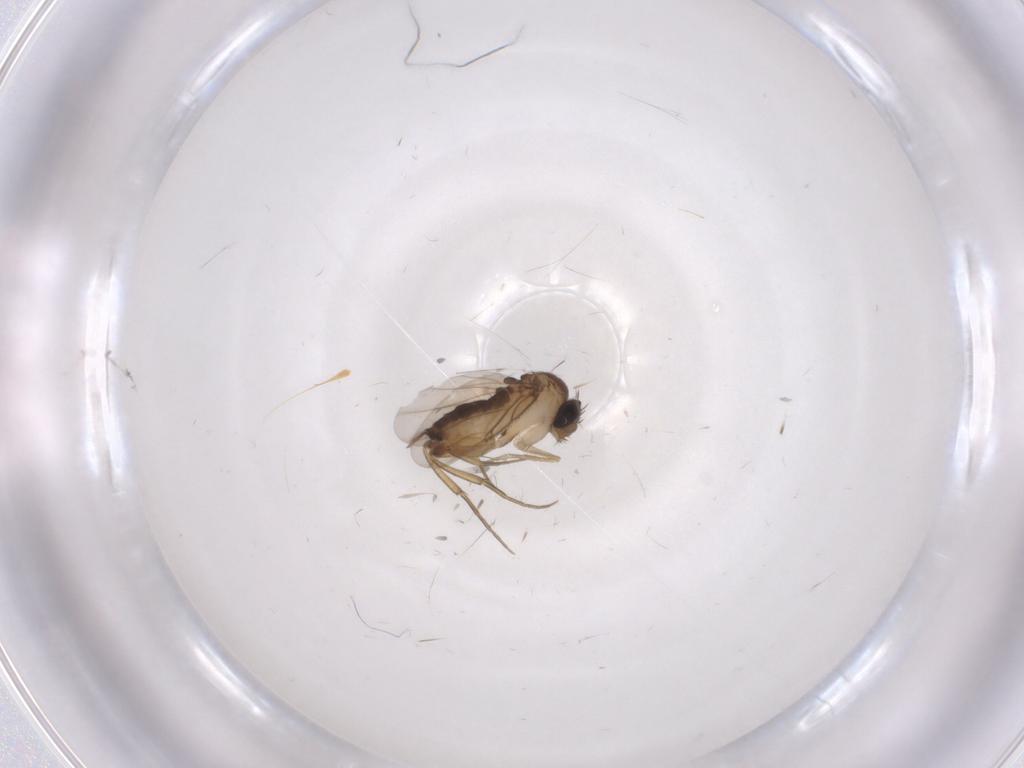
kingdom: Animalia
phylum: Arthropoda
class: Insecta
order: Diptera
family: Phoridae
